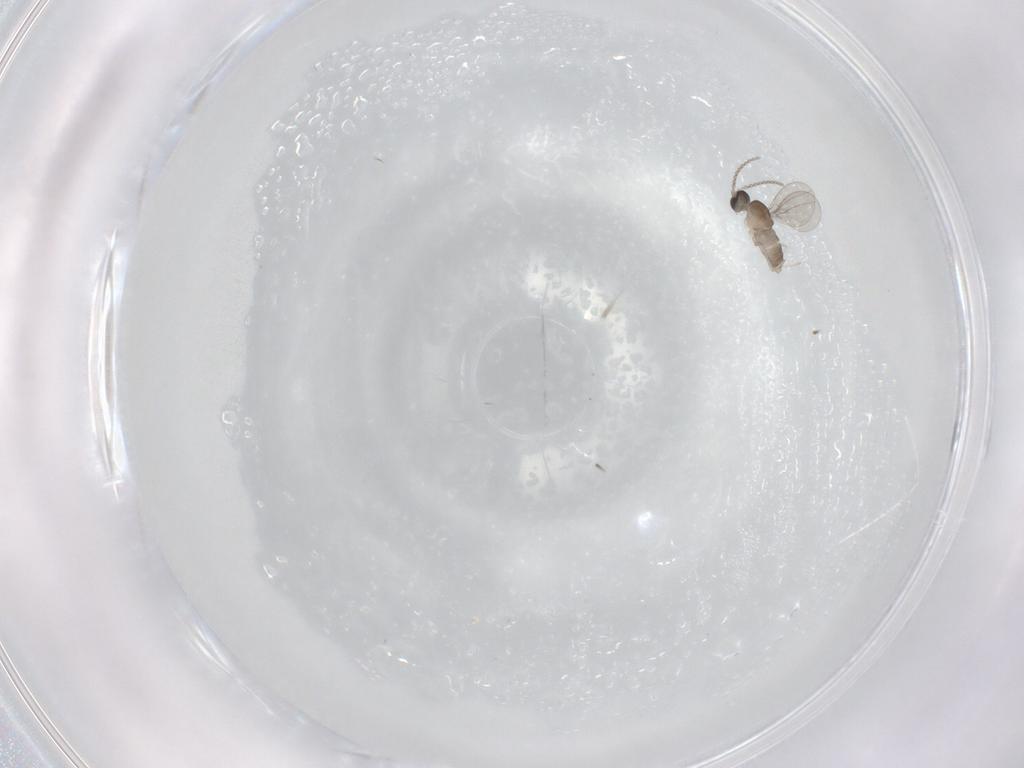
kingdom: Animalia
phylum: Arthropoda
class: Insecta
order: Diptera
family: Cecidomyiidae
